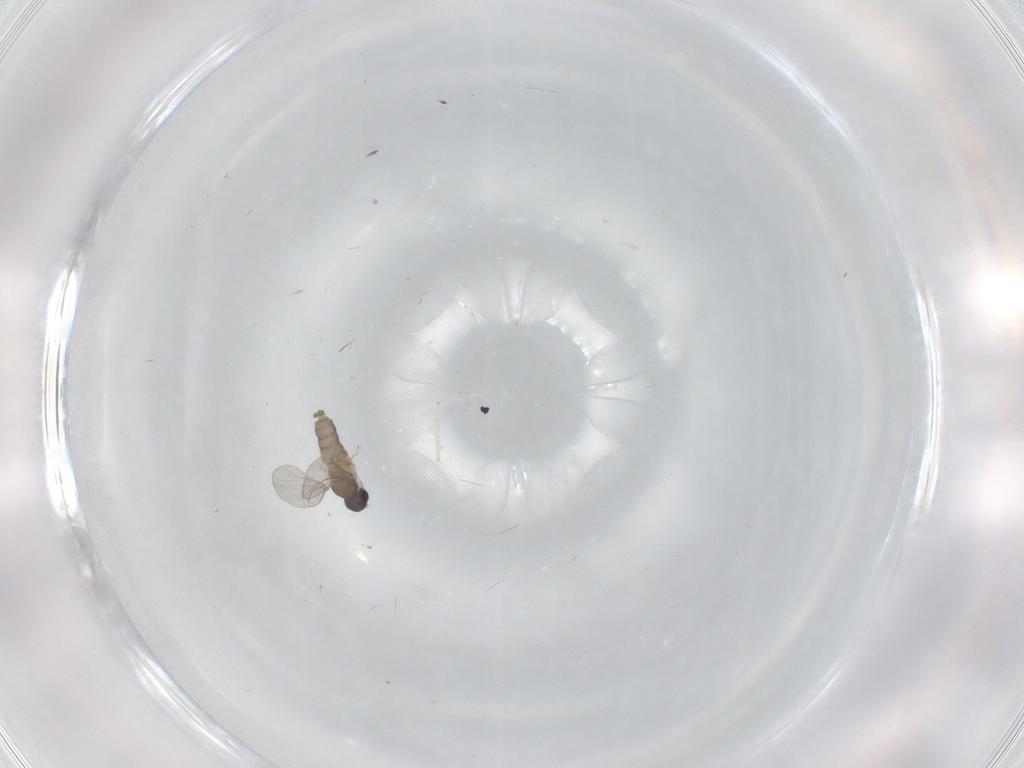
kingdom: Animalia
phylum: Arthropoda
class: Insecta
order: Diptera
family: Cecidomyiidae
